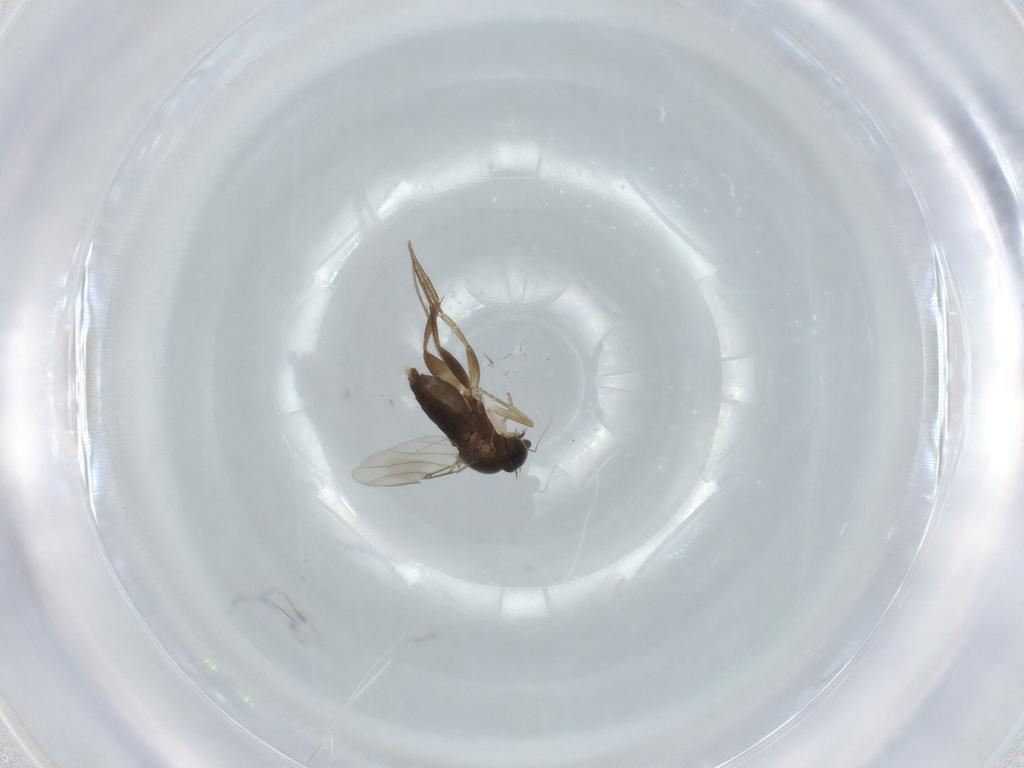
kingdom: Animalia
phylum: Arthropoda
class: Insecta
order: Diptera
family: Phoridae
